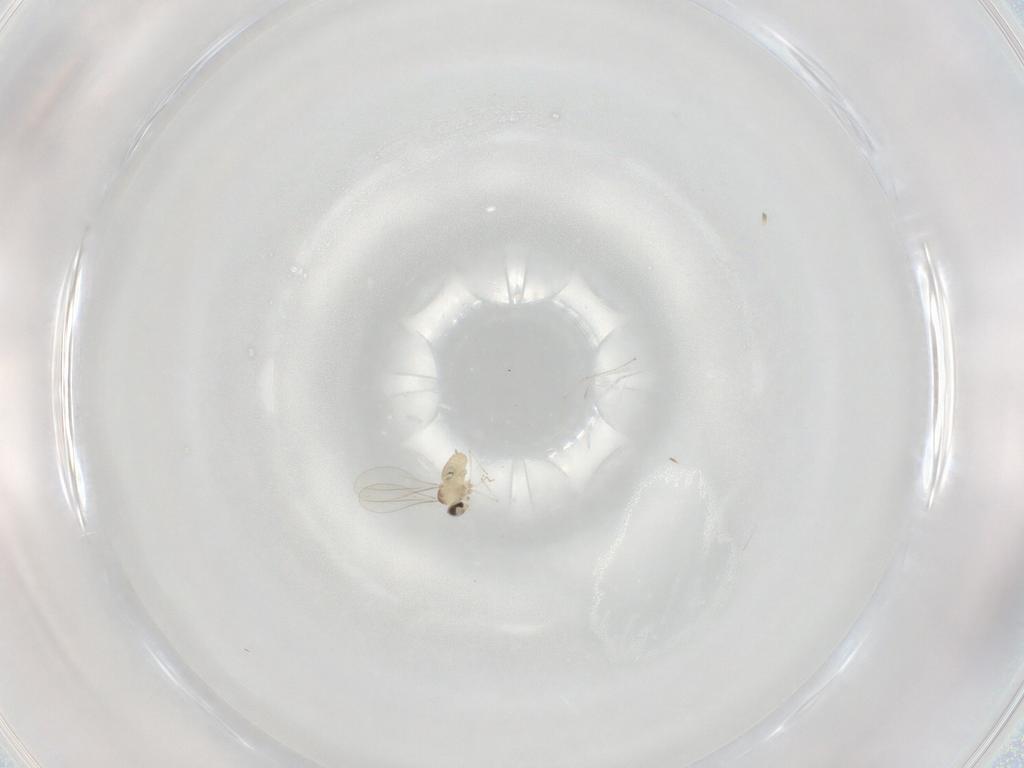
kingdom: Animalia
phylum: Arthropoda
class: Insecta
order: Diptera
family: Cecidomyiidae
